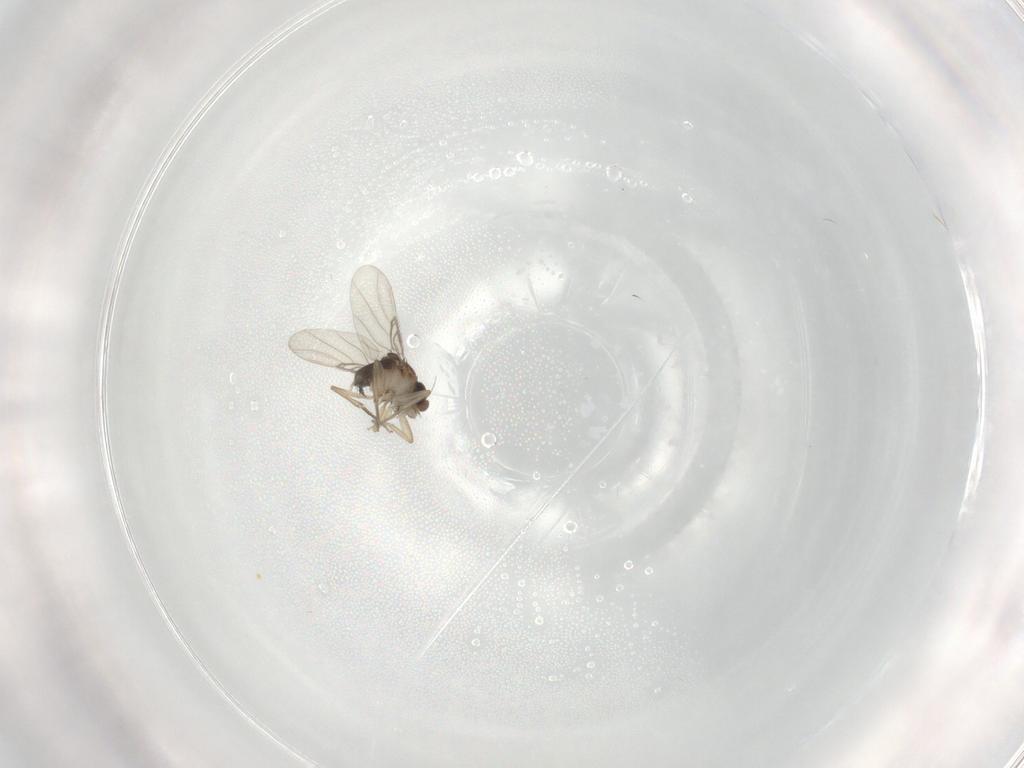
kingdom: Animalia
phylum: Arthropoda
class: Insecta
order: Diptera
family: Phoridae
